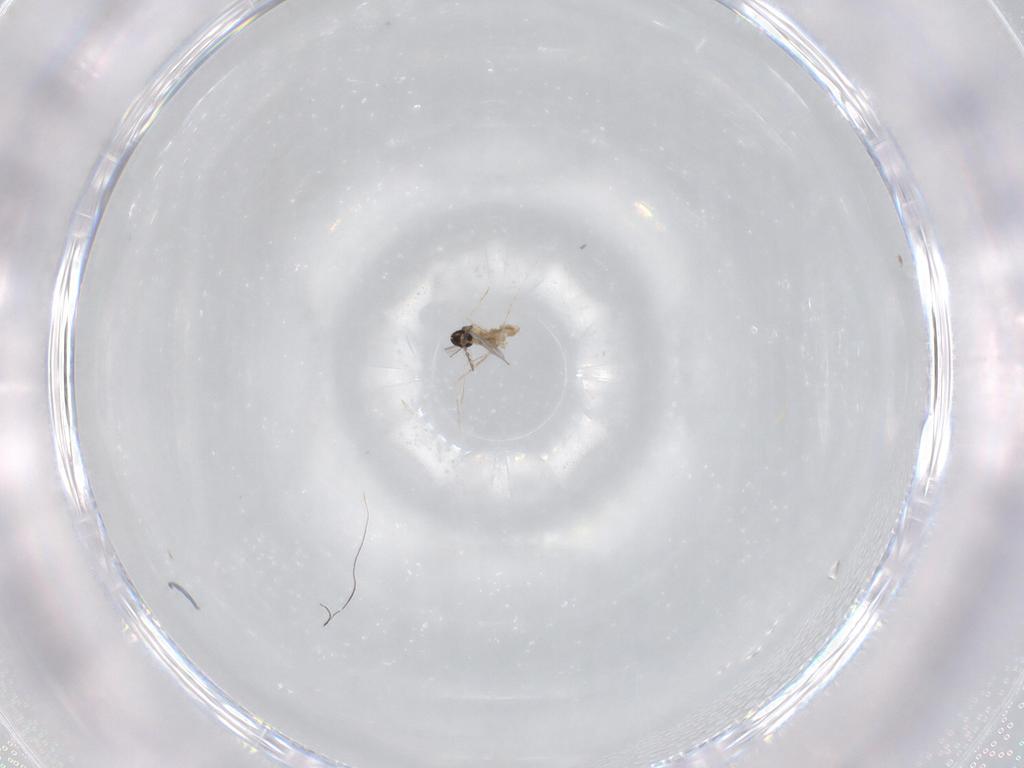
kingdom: Animalia
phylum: Arthropoda
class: Insecta
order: Diptera
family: Cecidomyiidae
